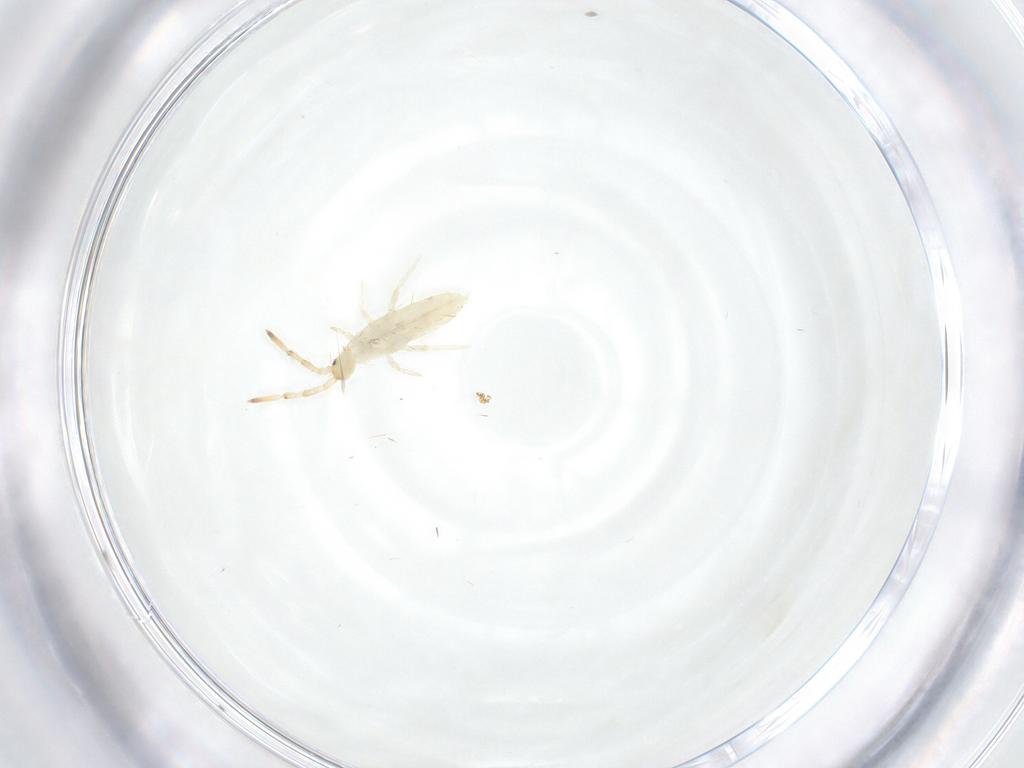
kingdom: Animalia
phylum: Arthropoda
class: Collembola
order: Entomobryomorpha
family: Entomobryidae
